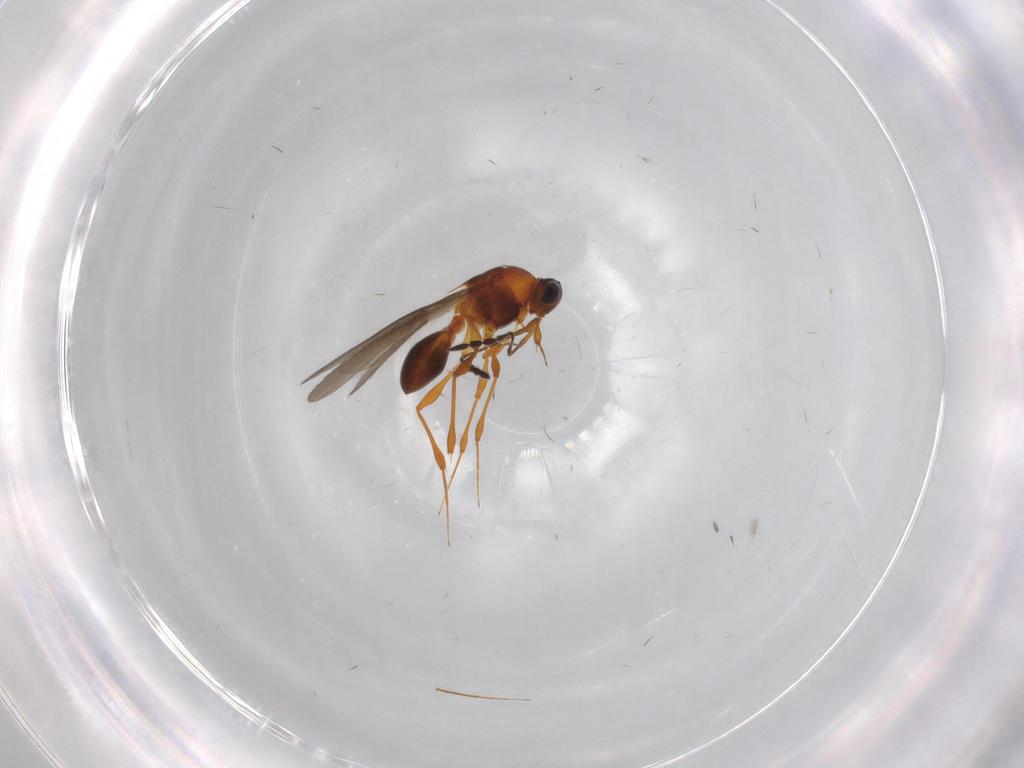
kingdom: Animalia
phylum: Arthropoda
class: Insecta
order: Hymenoptera
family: Platygastridae
